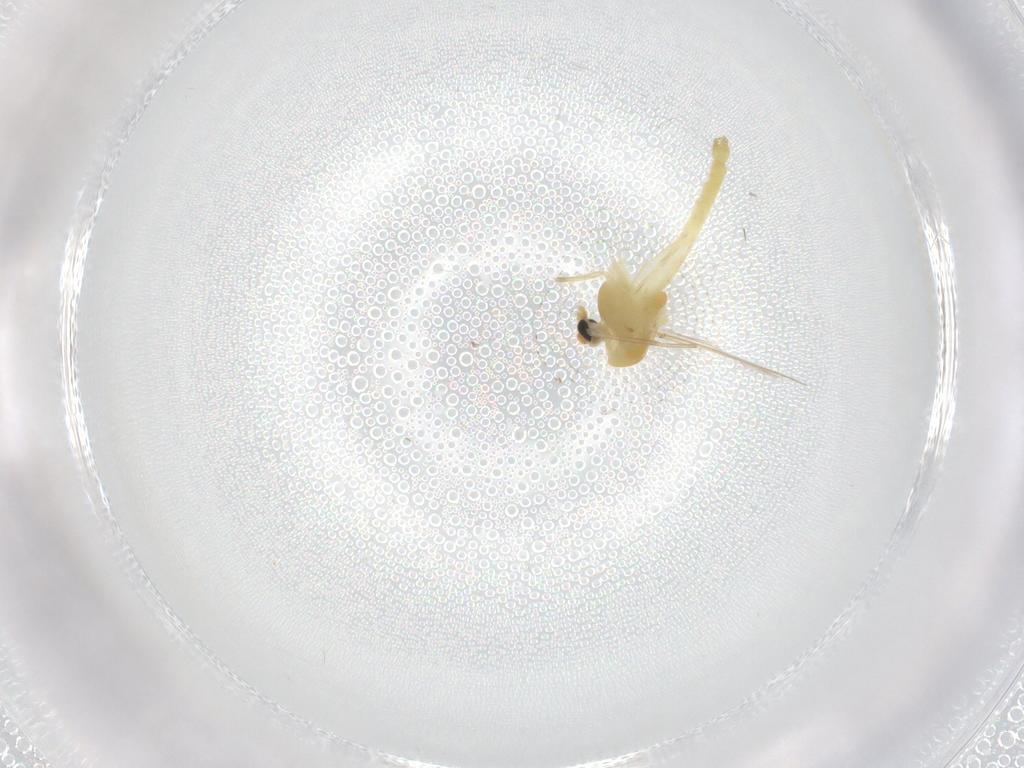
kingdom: Animalia
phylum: Arthropoda
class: Insecta
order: Diptera
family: Chironomidae
